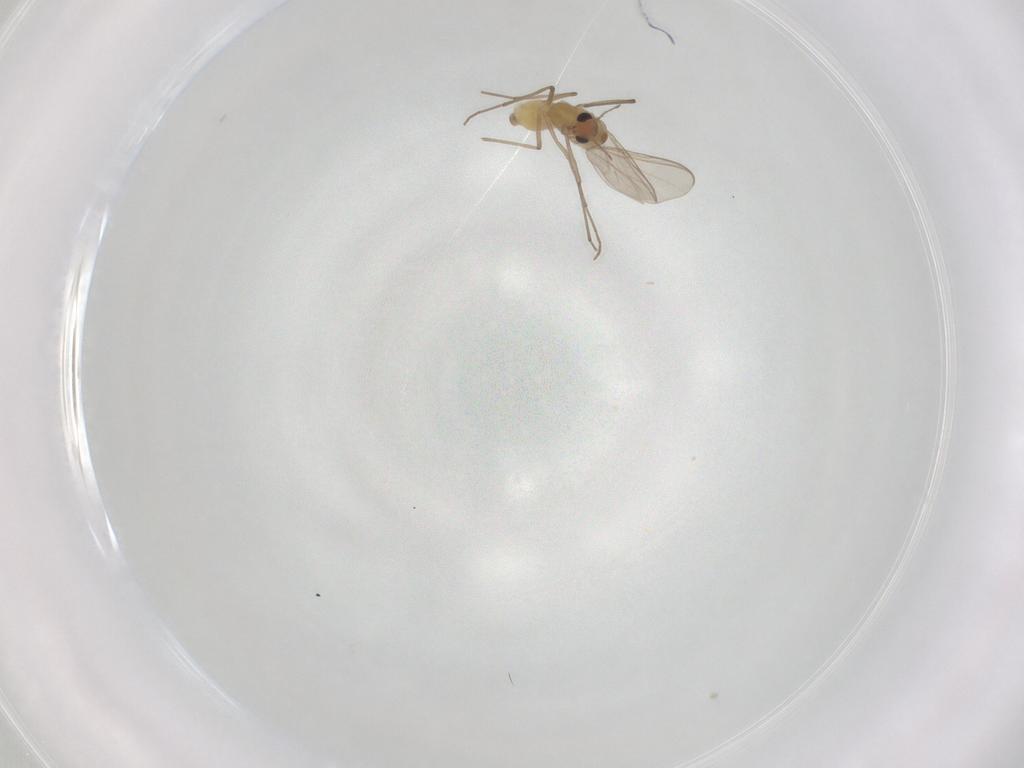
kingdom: Animalia
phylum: Arthropoda
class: Insecta
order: Diptera
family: Chironomidae
